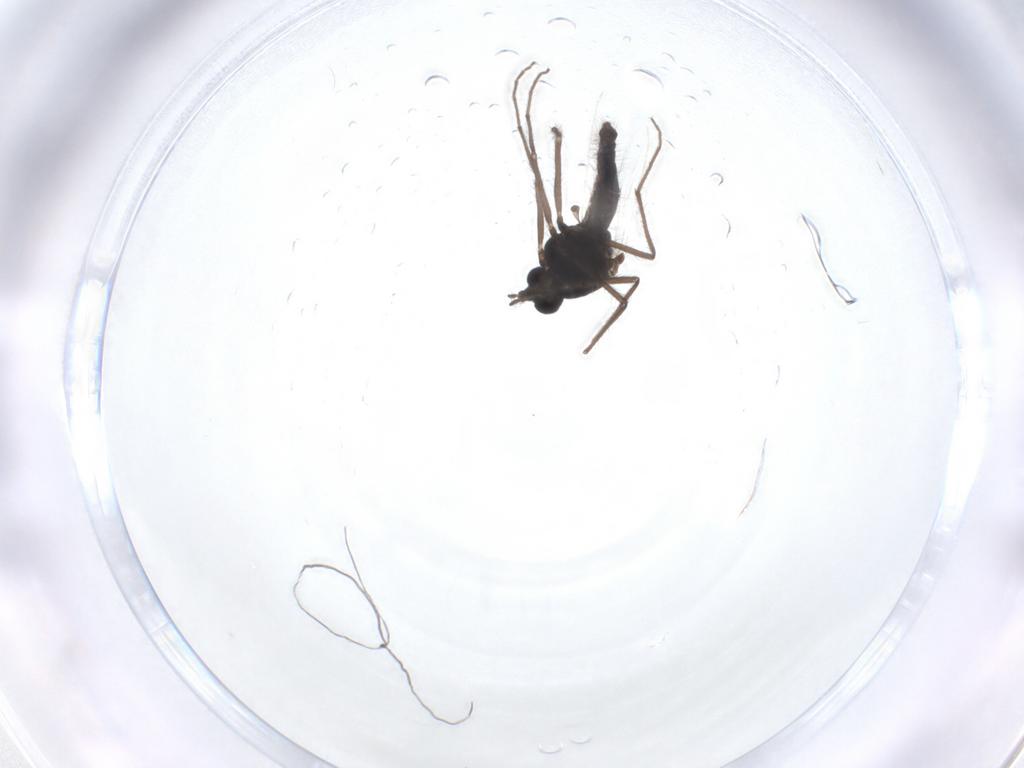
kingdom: Animalia
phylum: Arthropoda
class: Insecta
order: Diptera
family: Chironomidae
